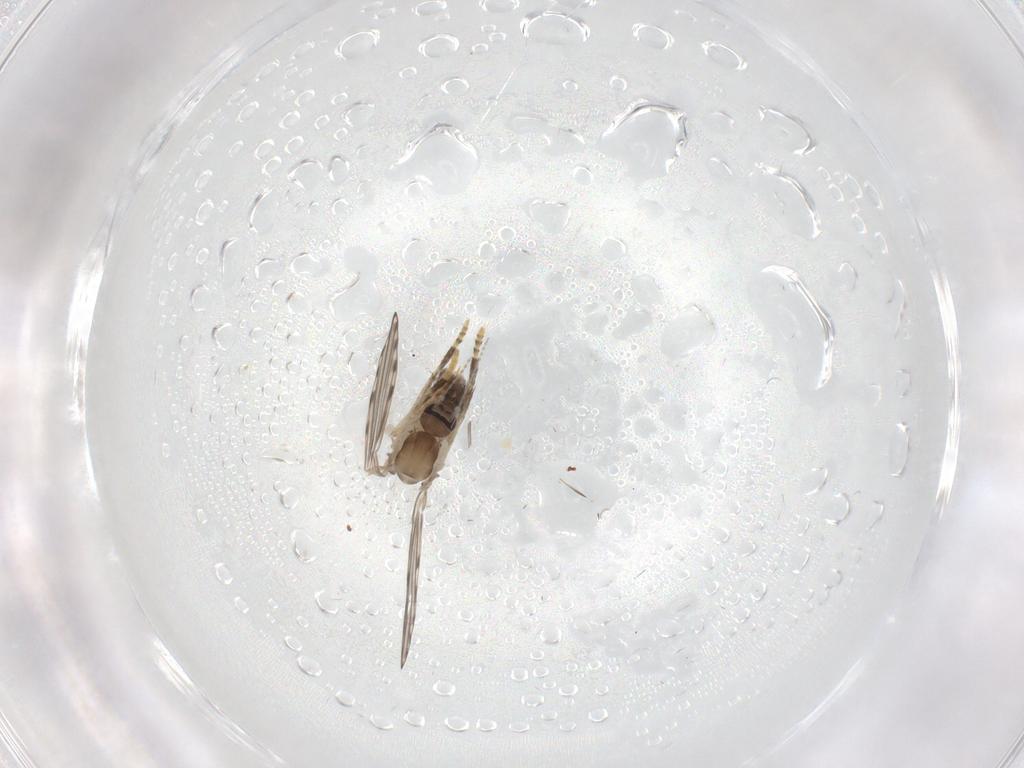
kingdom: Animalia
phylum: Arthropoda
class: Insecta
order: Diptera
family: Psychodidae
